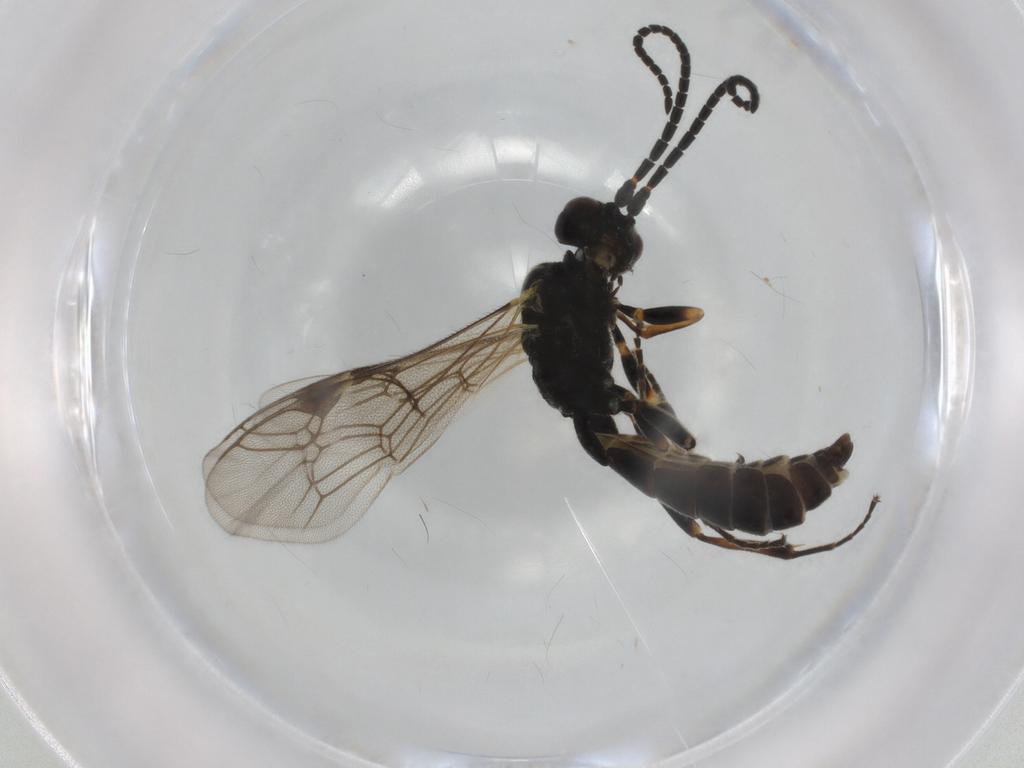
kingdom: Animalia
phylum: Arthropoda
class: Insecta
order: Hymenoptera
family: Ichneumonidae
